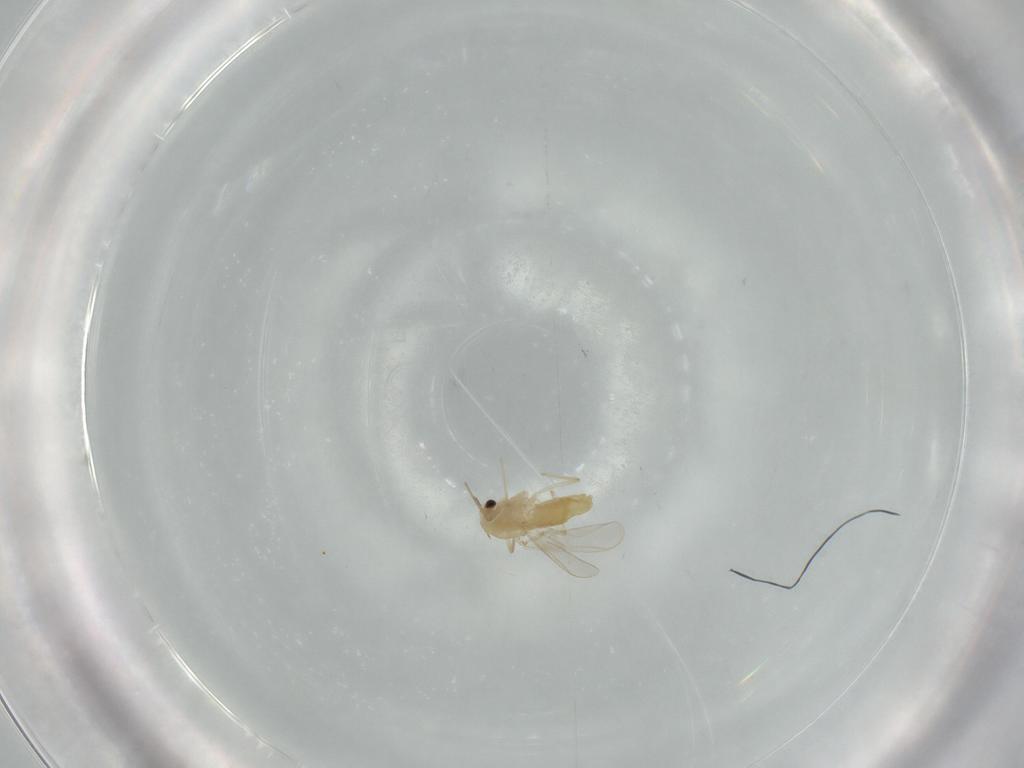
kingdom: Animalia
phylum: Arthropoda
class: Insecta
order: Diptera
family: Chironomidae
